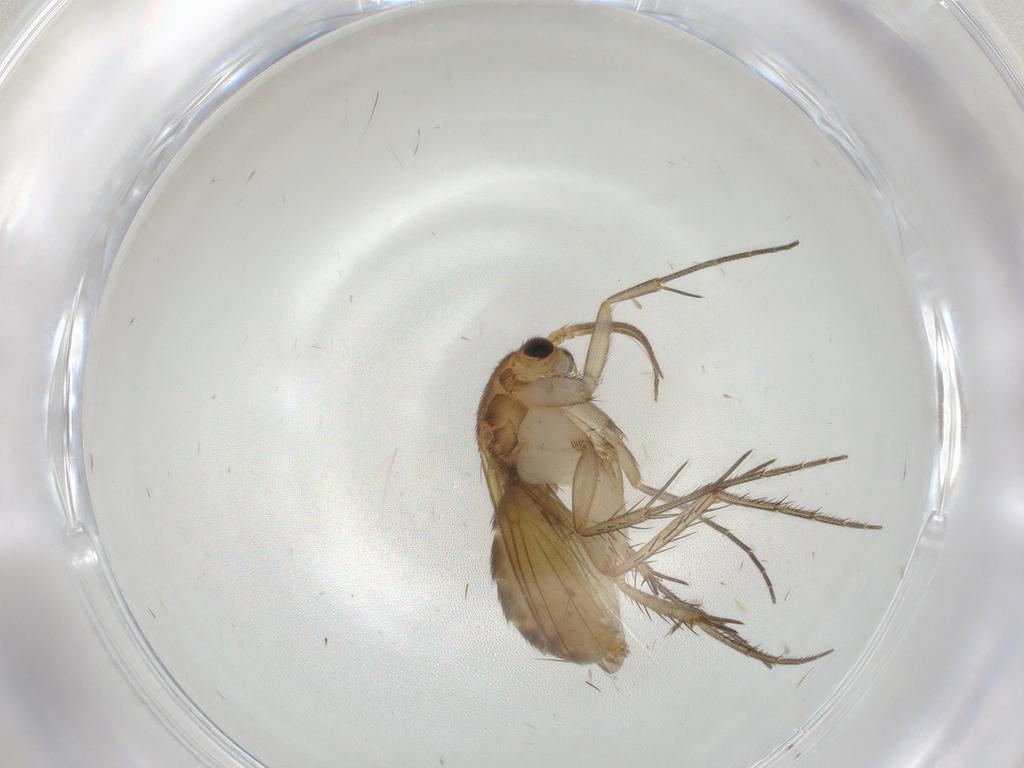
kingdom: Animalia
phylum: Arthropoda
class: Insecta
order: Diptera
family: Mycetophilidae
